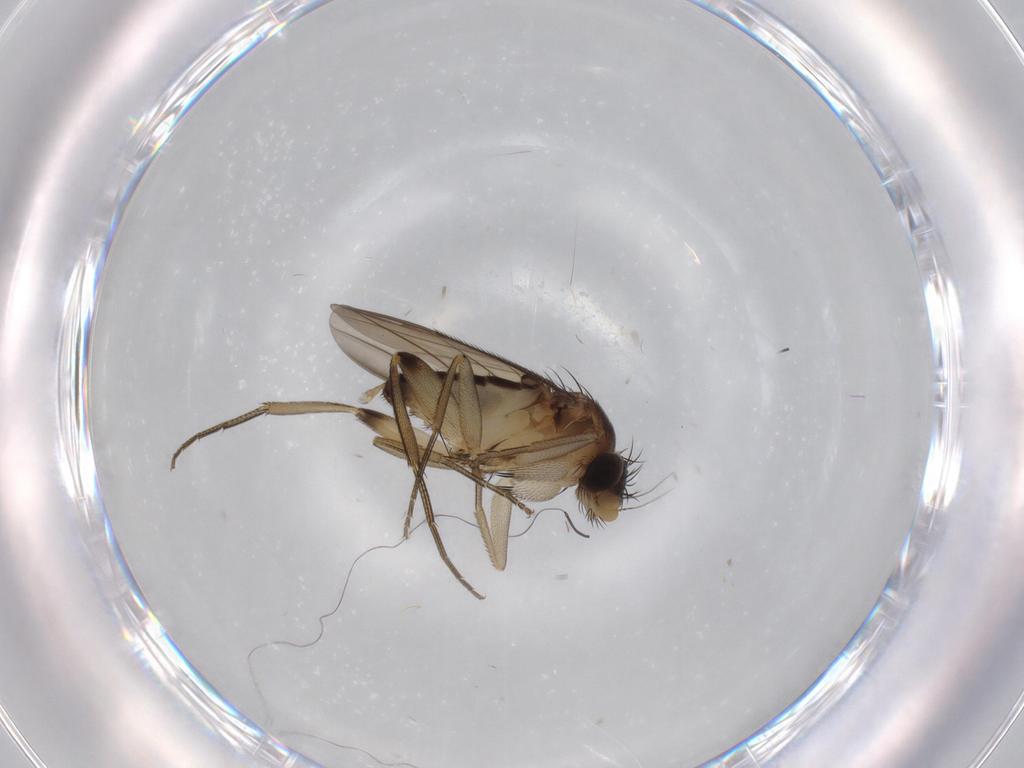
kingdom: Animalia
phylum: Arthropoda
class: Insecta
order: Diptera
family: Phoridae
